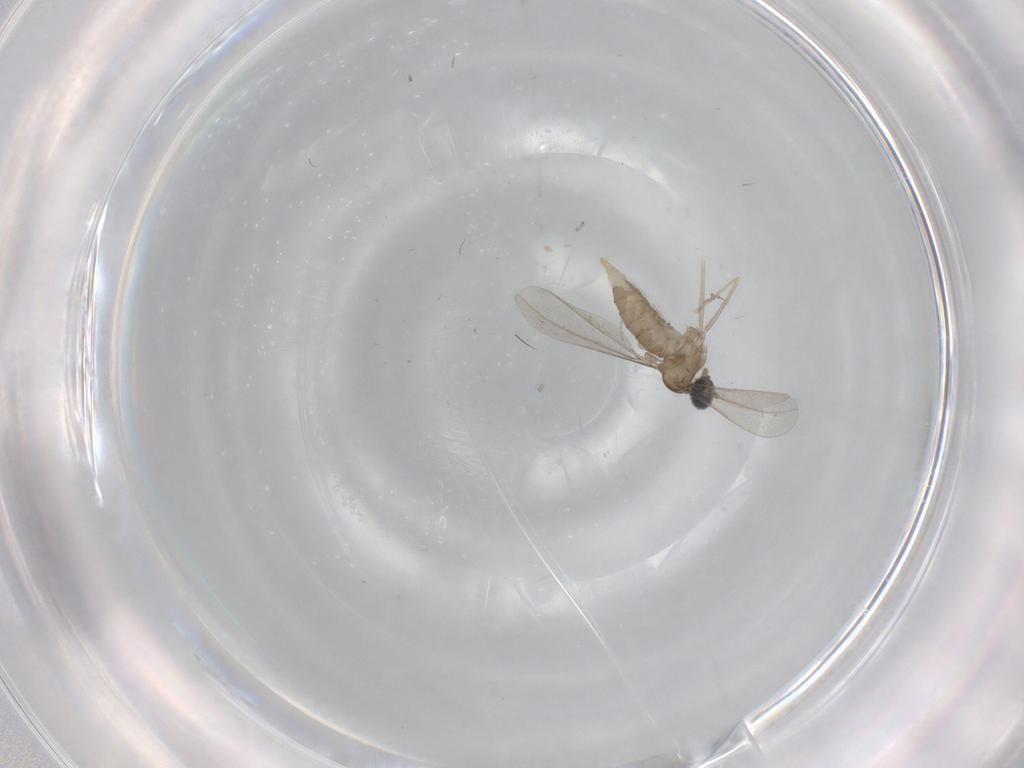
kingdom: Animalia
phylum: Arthropoda
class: Insecta
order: Diptera
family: Cecidomyiidae
